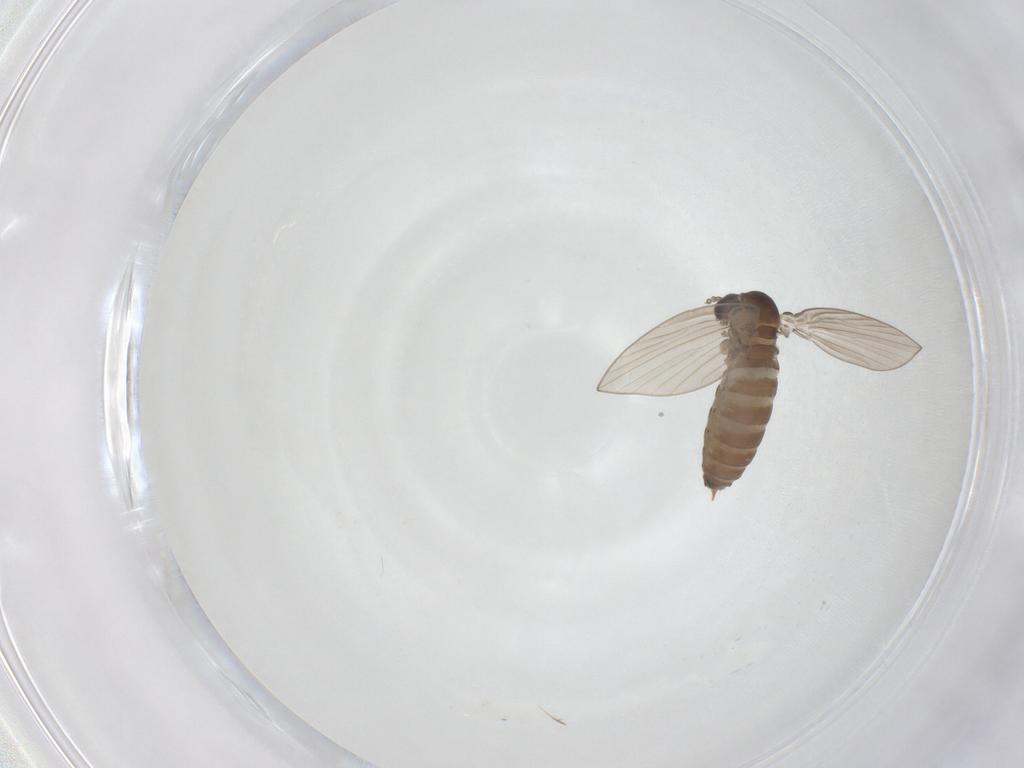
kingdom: Animalia
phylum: Arthropoda
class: Insecta
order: Diptera
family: Psychodidae
